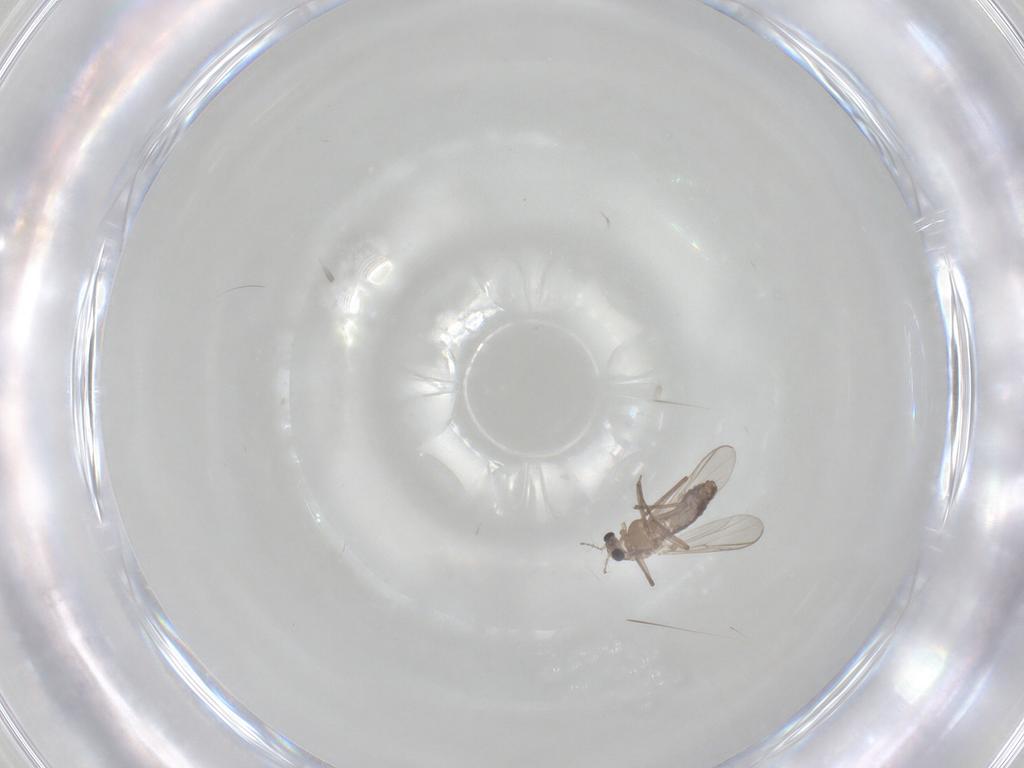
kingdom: Animalia
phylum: Arthropoda
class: Insecta
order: Diptera
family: Chironomidae
